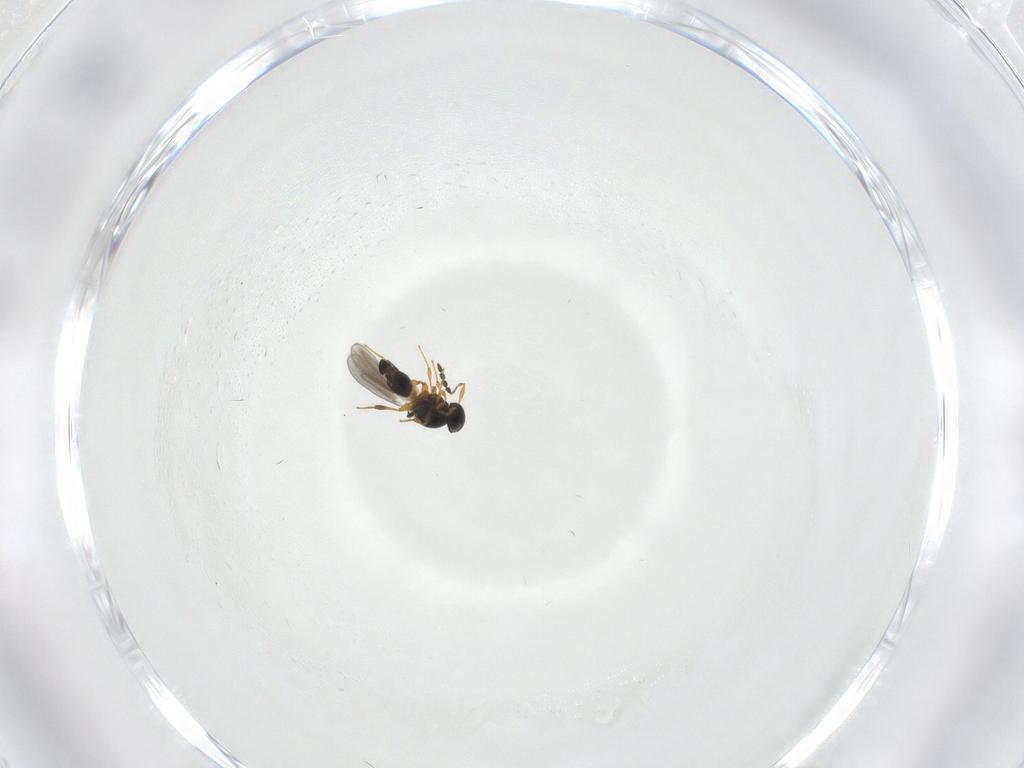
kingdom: Animalia
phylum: Arthropoda
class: Insecta
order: Hymenoptera
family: Platygastridae
